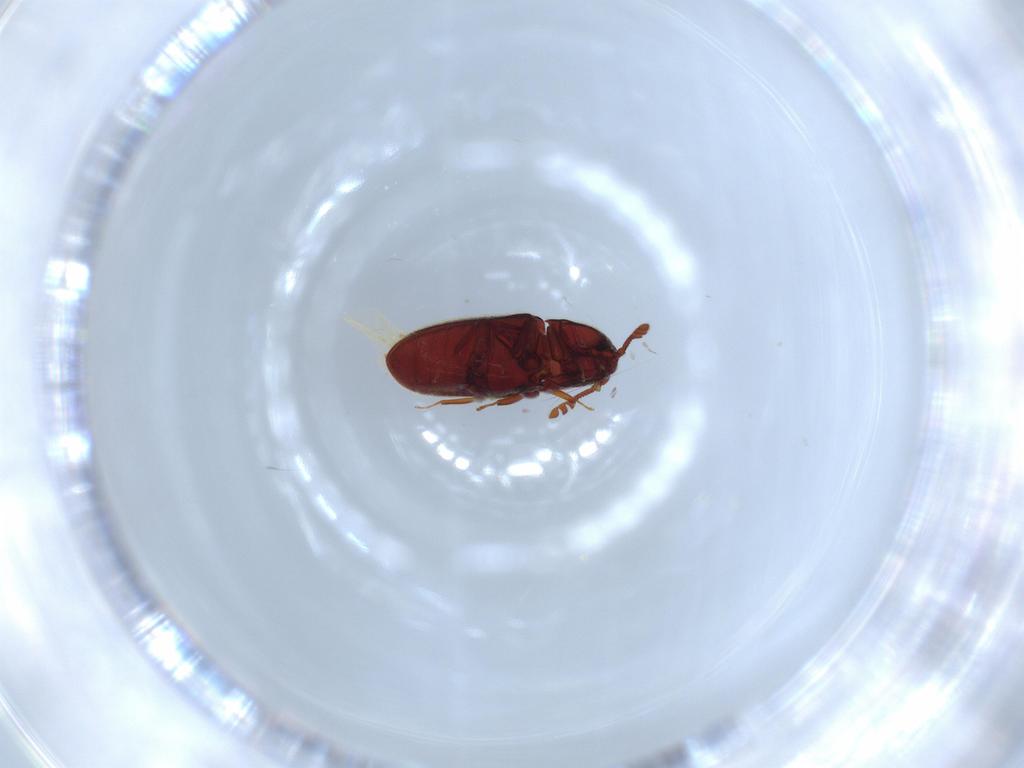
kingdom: Animalia
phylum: Arthropoda
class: Insecta
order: Coleoptera
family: Throscidae
